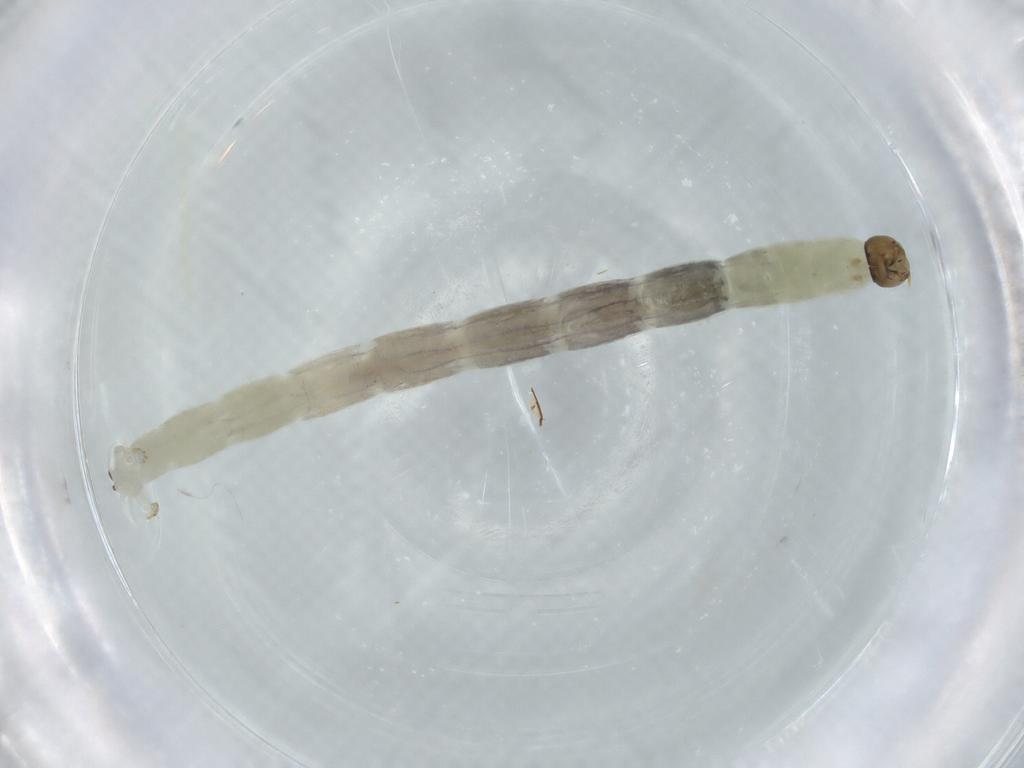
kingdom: Animalia
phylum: Arthropoda
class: Insecta
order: Diptera
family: Chironomidae
